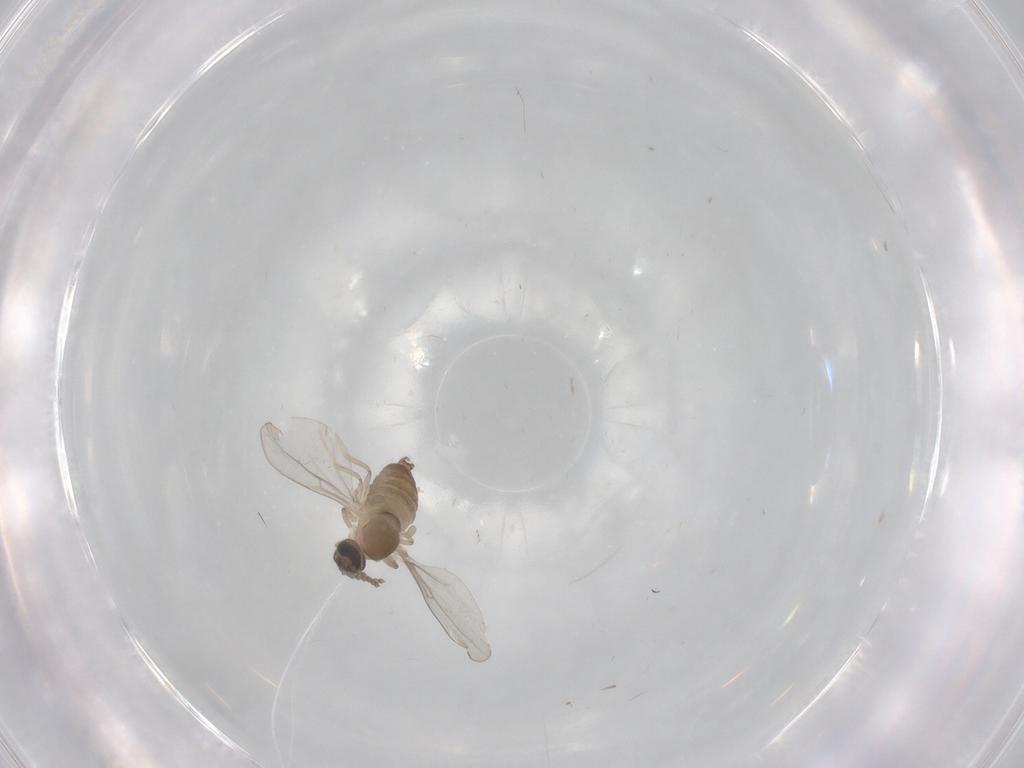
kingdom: Animalia
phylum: Arthropoda
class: Insecta
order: Diptera
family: Cecidomyiidae
